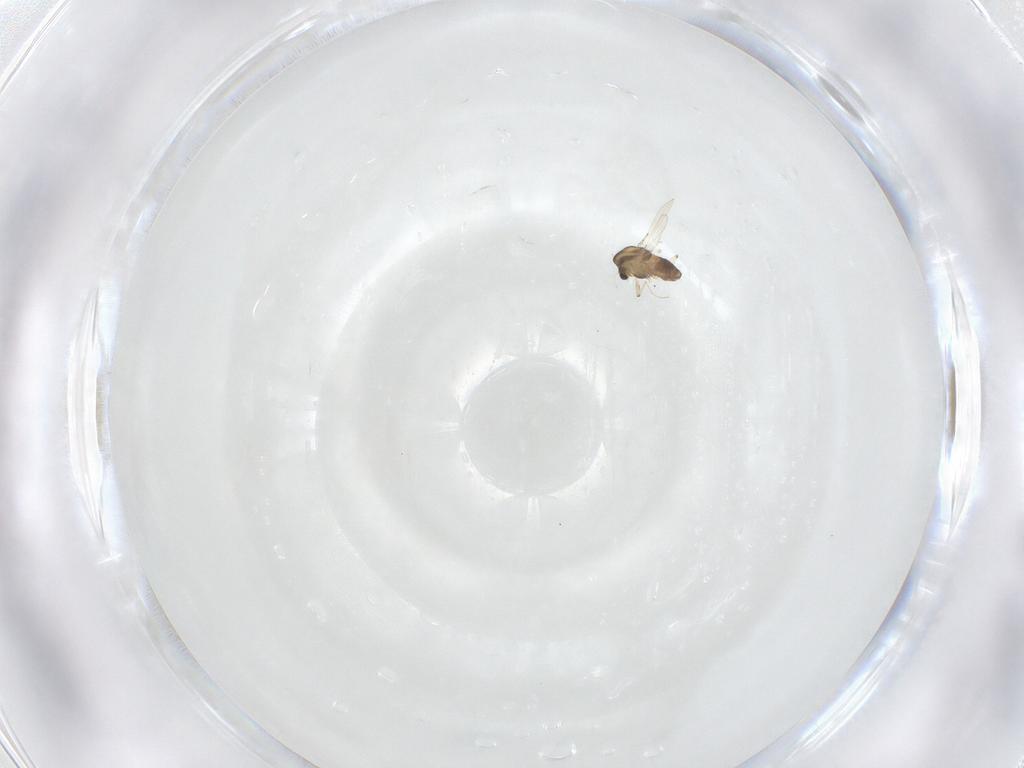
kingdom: Animalia
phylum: Arthropoda
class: Insecta
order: Diptera
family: Chironomidae
